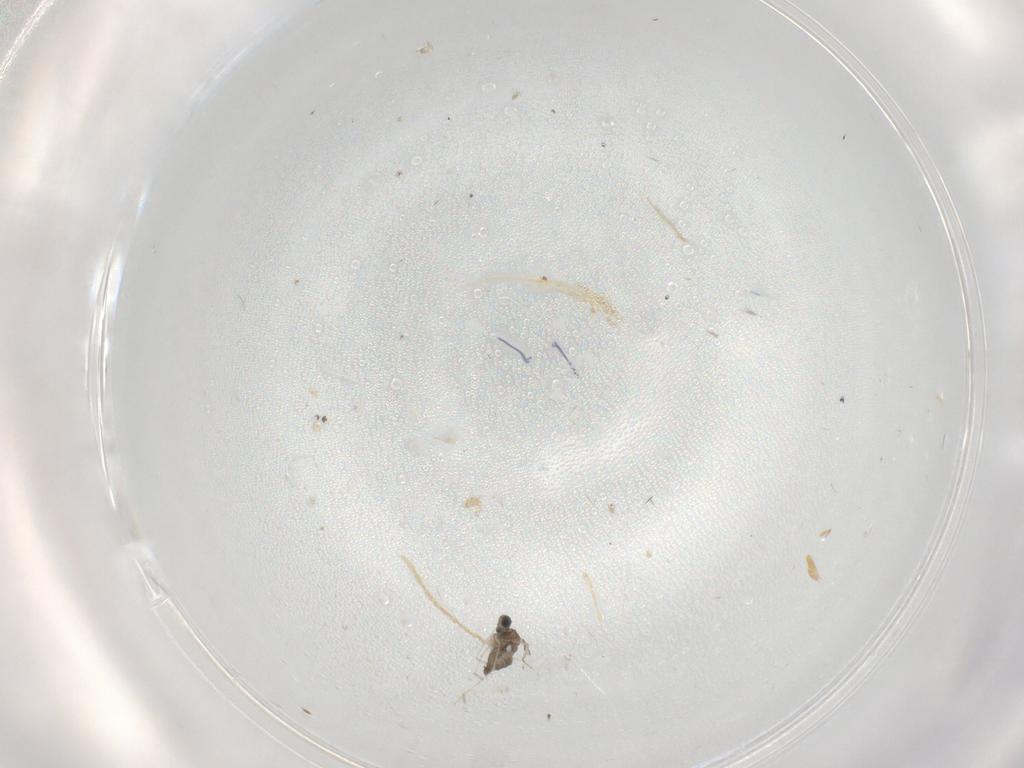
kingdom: Animalia
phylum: Arthropoda
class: Insecta
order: Diptera
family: Cecidomyiidae
